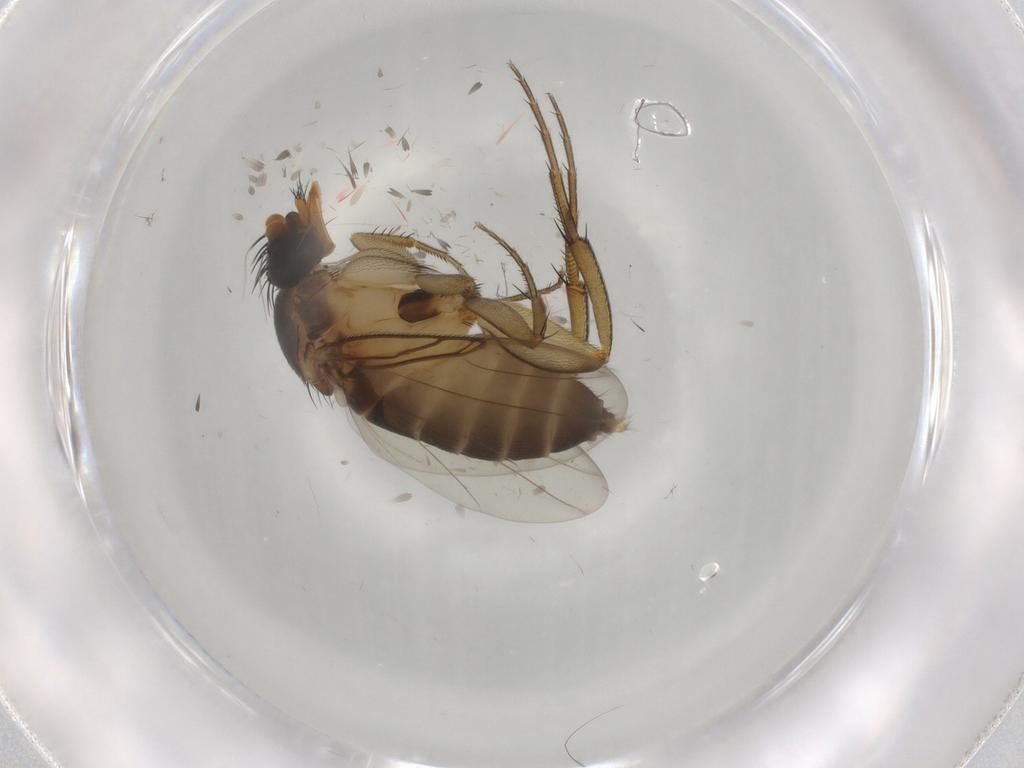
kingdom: Animalia
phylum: Arthropoda
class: Insecta
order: Diptera
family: Phoridae
